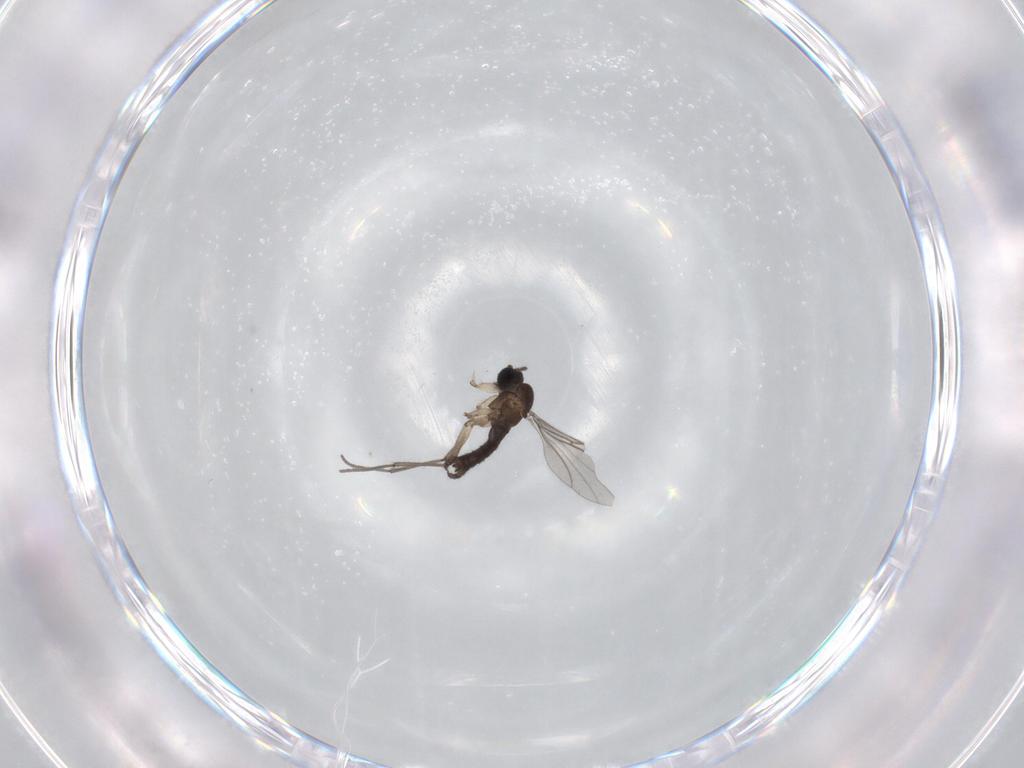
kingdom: Animalia
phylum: Arthropoda
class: Insecta
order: Diptera
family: Sciaridae
